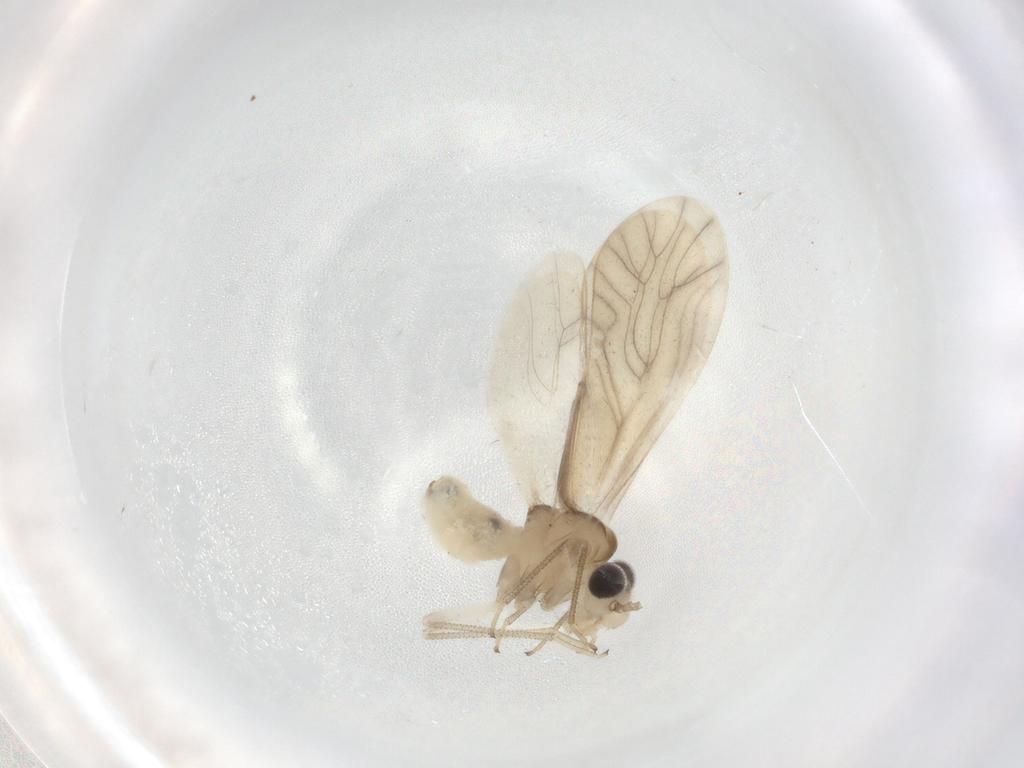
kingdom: Animalia
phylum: Arthropoda
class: Insecta
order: Psocodea
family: Caeciliusidae
